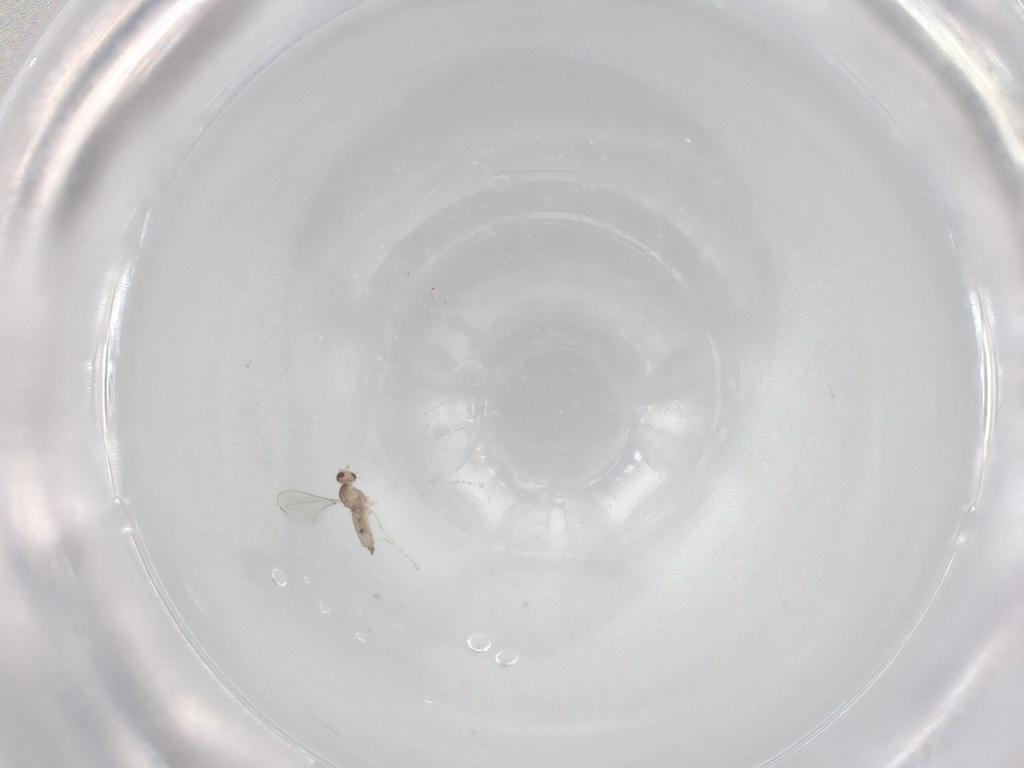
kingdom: Animalia
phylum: Arthropoda
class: Insecta
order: Diptera
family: Cecidomyiidae
